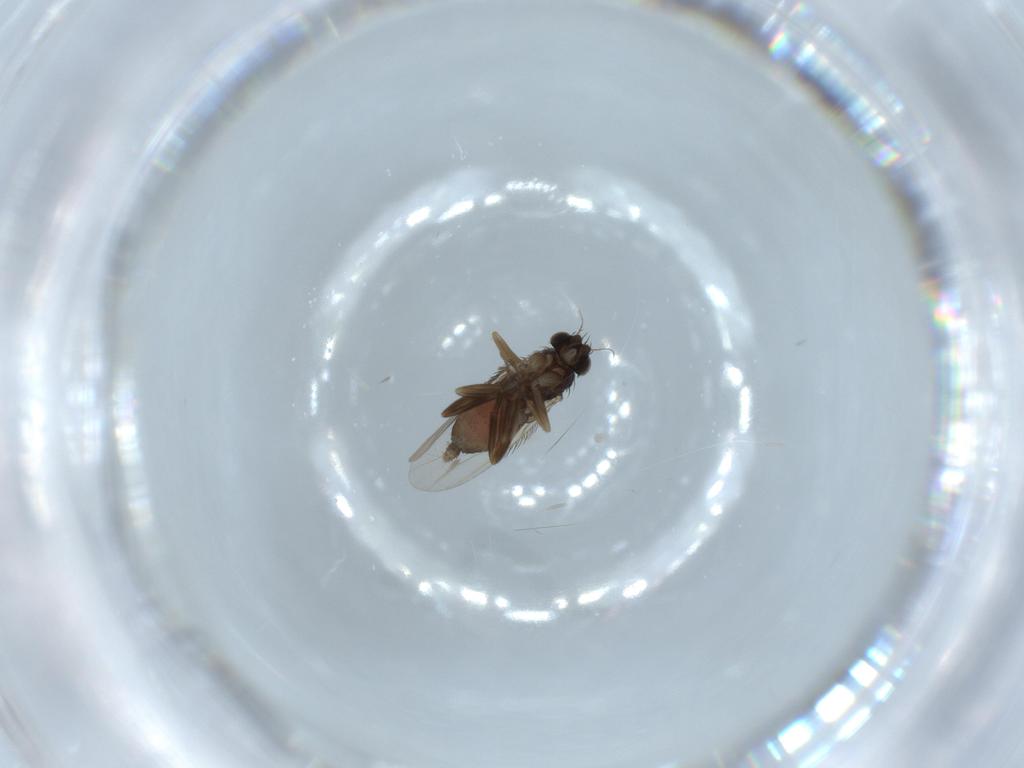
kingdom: Animalia
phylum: Arthropoda
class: Insecta
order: Diptera
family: Phoridae
